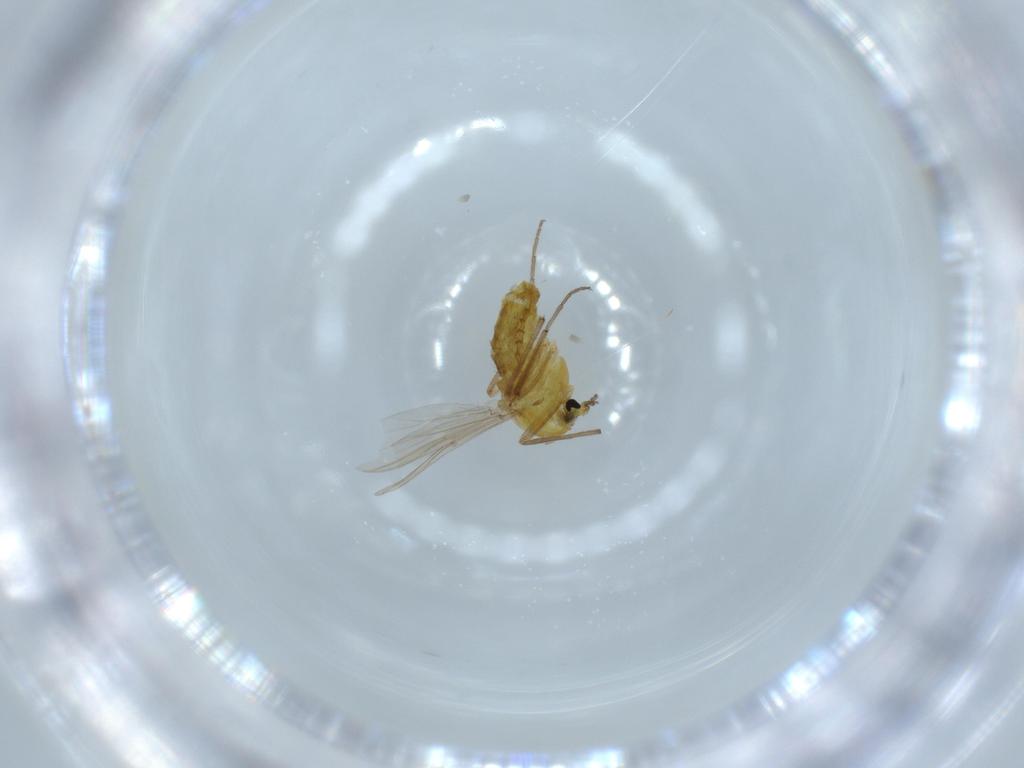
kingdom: Animalia
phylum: Arthropoda
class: Insecta
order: Diptera
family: Chironomidae
